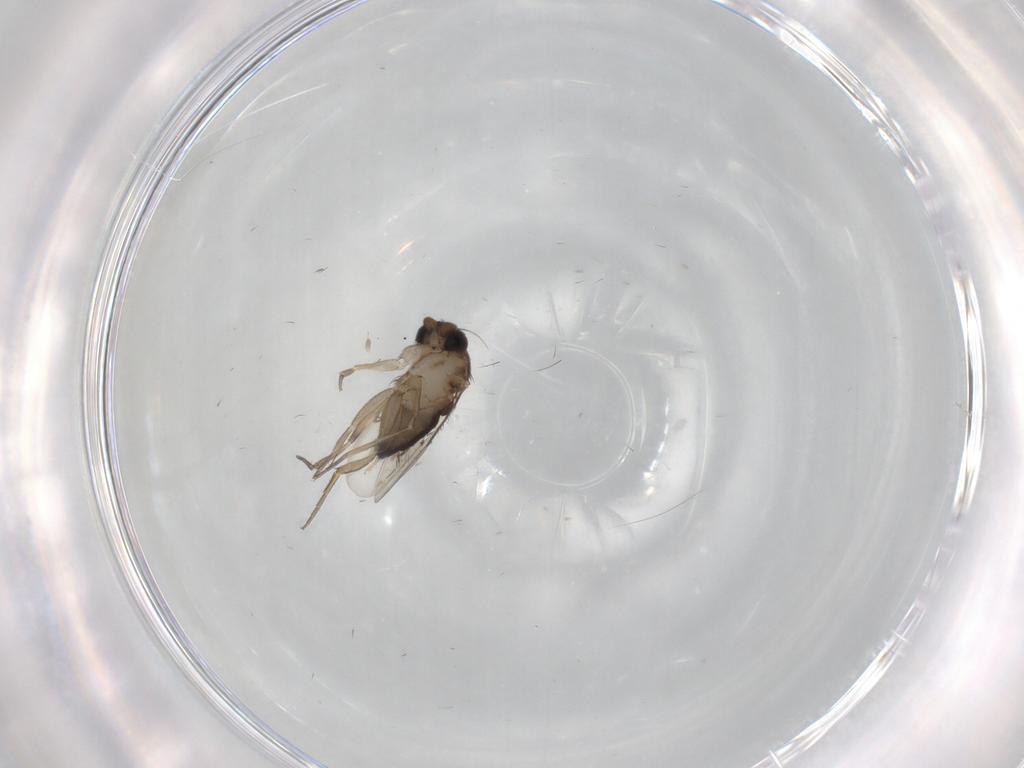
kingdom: Animalia
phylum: Arthropoda
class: Insecta
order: Diptera
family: Phoridae
